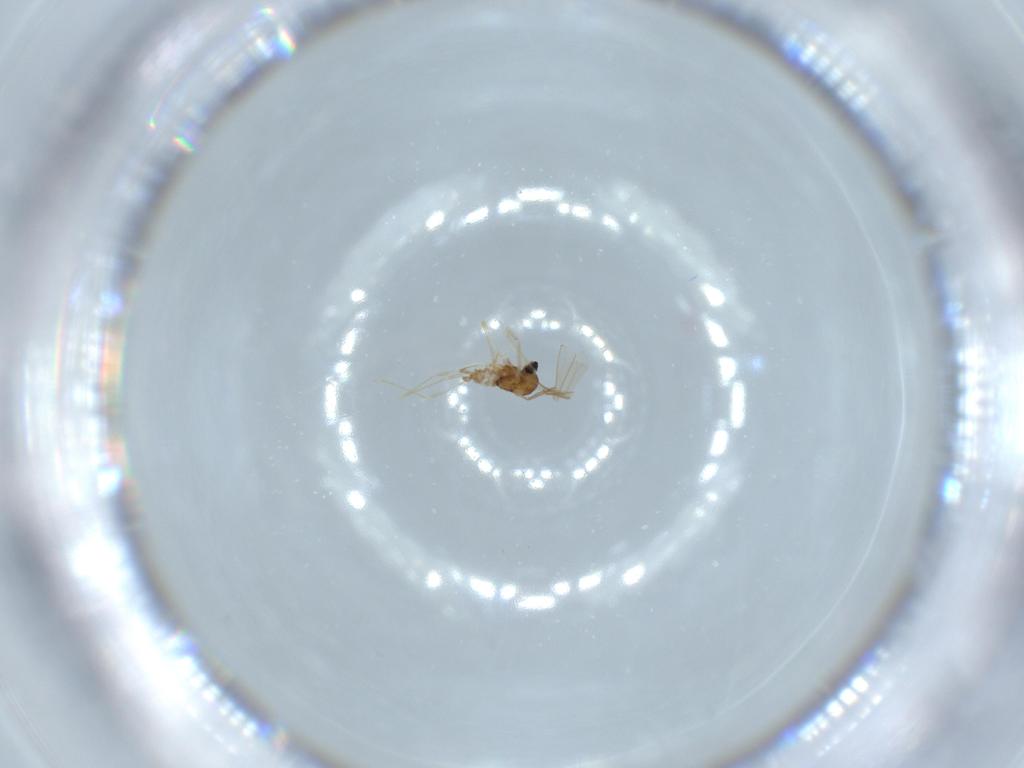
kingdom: Animalia
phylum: Arthropoda
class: Insecta
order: Diptera
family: Cecidomyiidae
